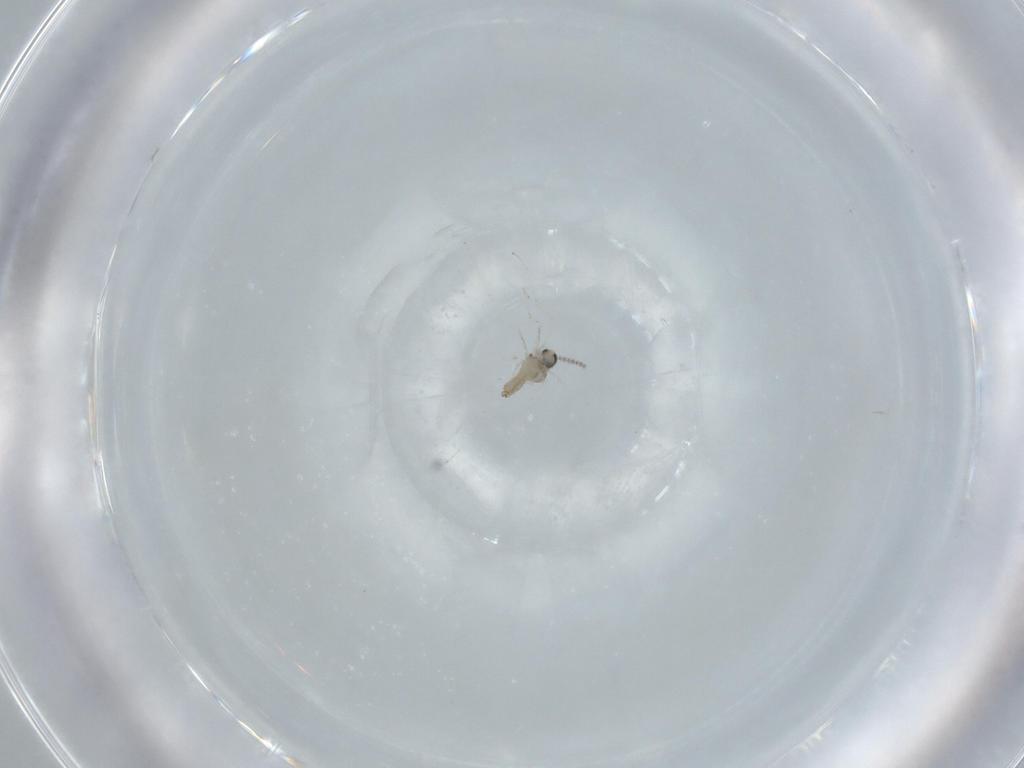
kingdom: Animalia
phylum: Arthropoda
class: Insecta
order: Diptera
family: Cecidomyiidae
